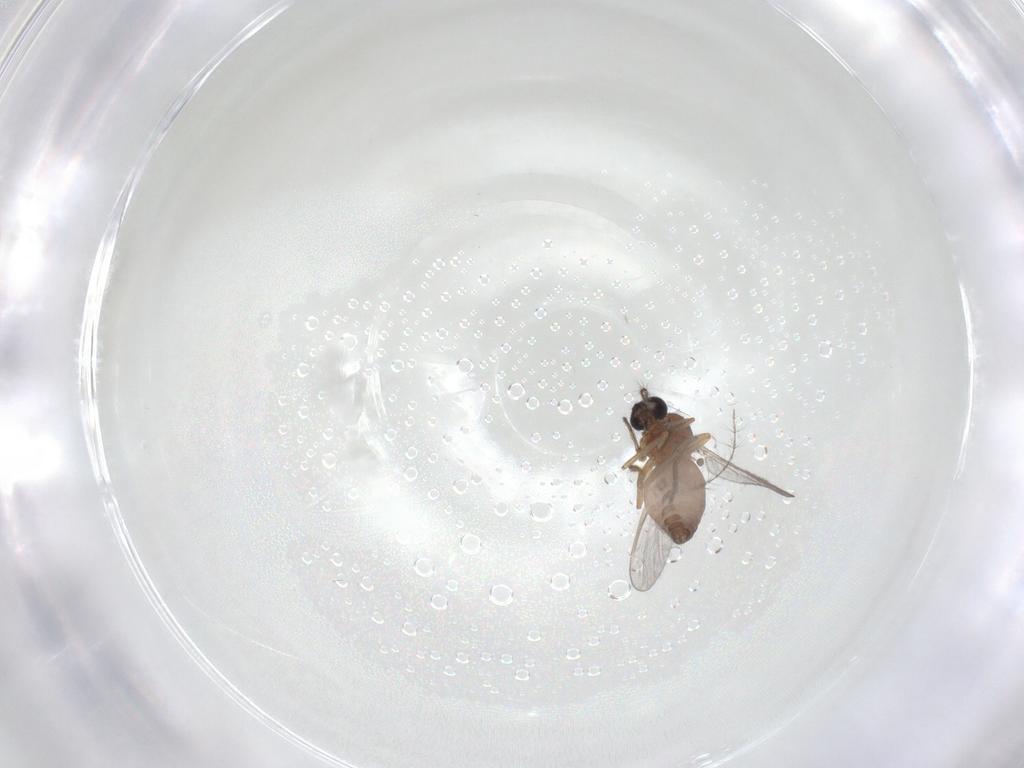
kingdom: Animalia
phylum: Arthropoda
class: Insecta
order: Diptera
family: Ceratopogonidae
